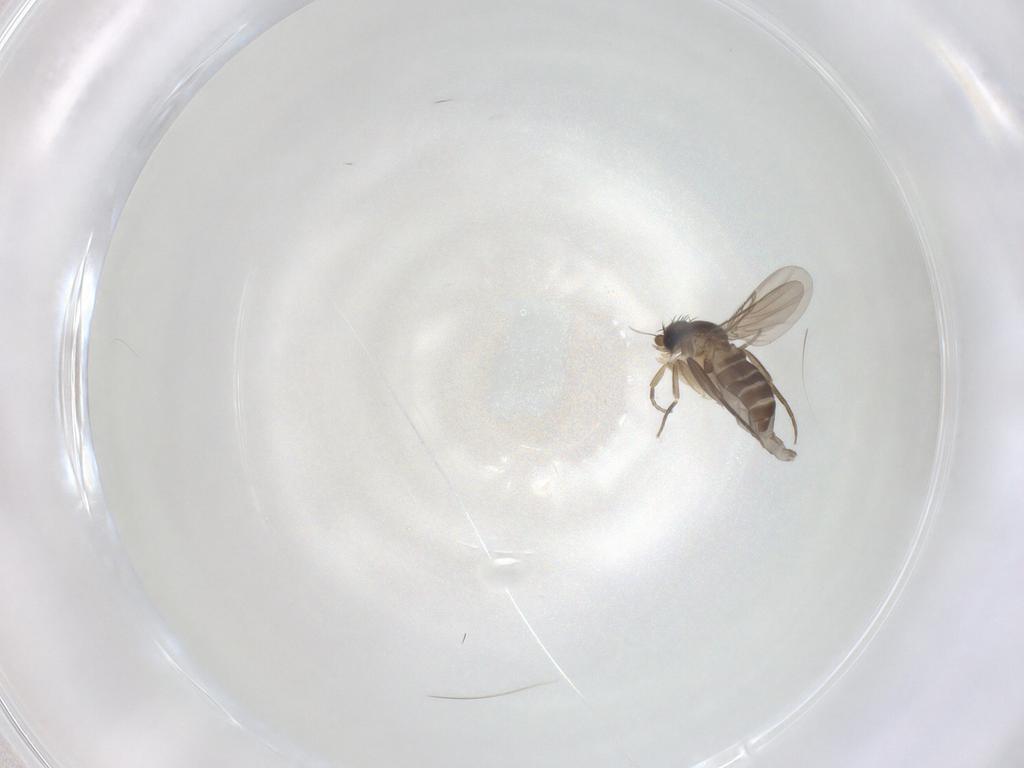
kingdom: Animalia
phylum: Arthropoda
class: Insecta
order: Diptera
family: Phoridae
